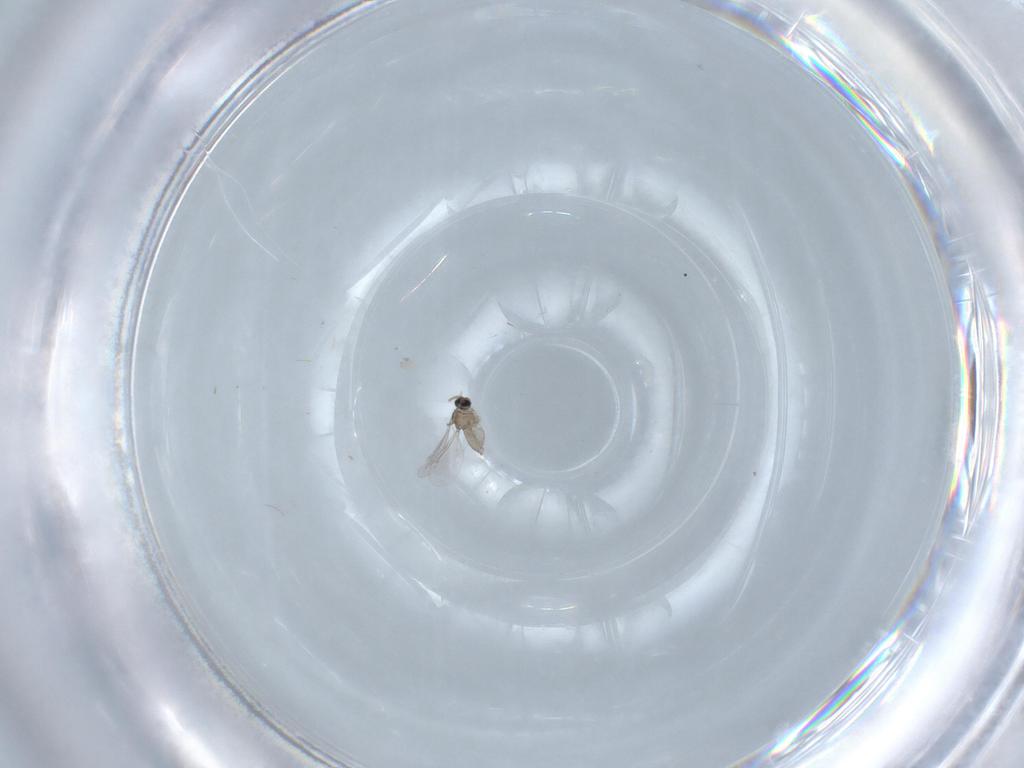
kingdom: Animalia
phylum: Arthropoda
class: Insecta
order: Diptera
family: Cecidomyiidae
